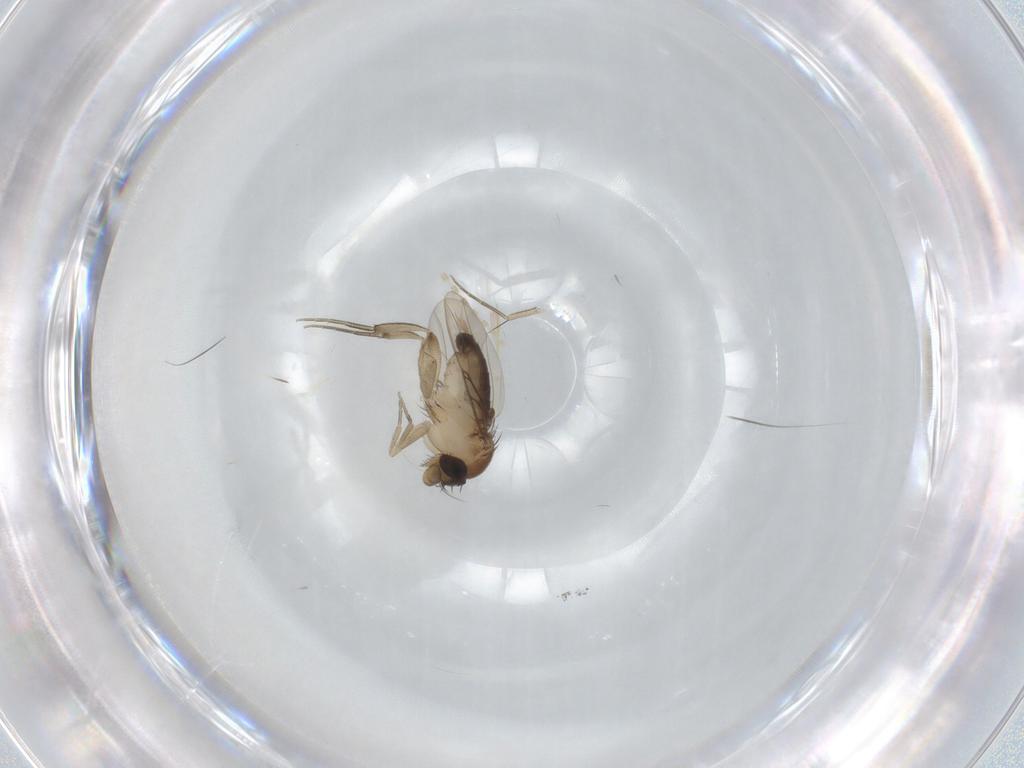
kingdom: Animalia
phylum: Arthropoda
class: Insecta
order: Diptera
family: Psychodidae
